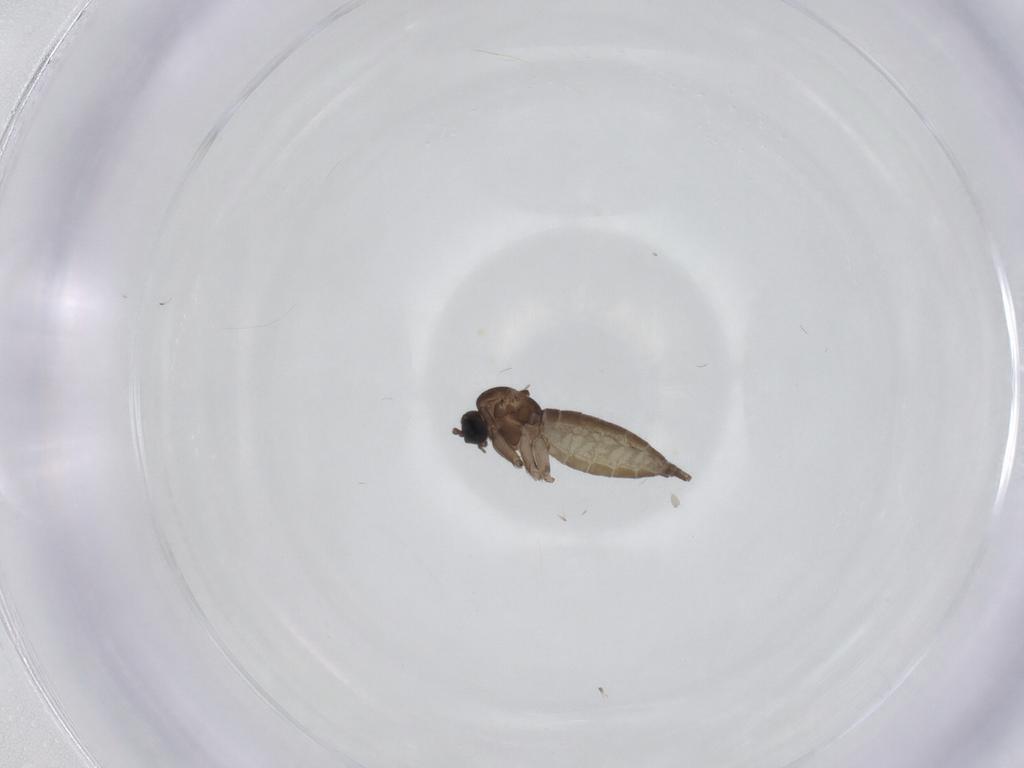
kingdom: Animalia
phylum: Arthropoda
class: Insecta
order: Diptera
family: Sciaridae
